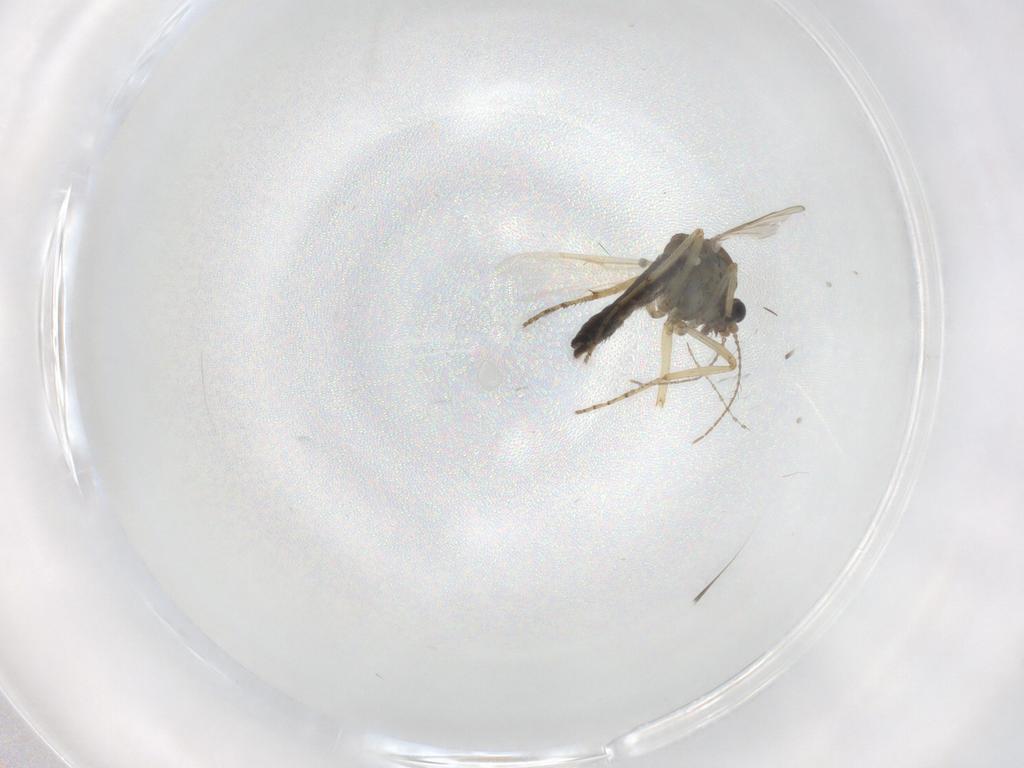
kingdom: Animalia
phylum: Arthropoda
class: Insecta
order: Diptera
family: Ceratopogonidae
